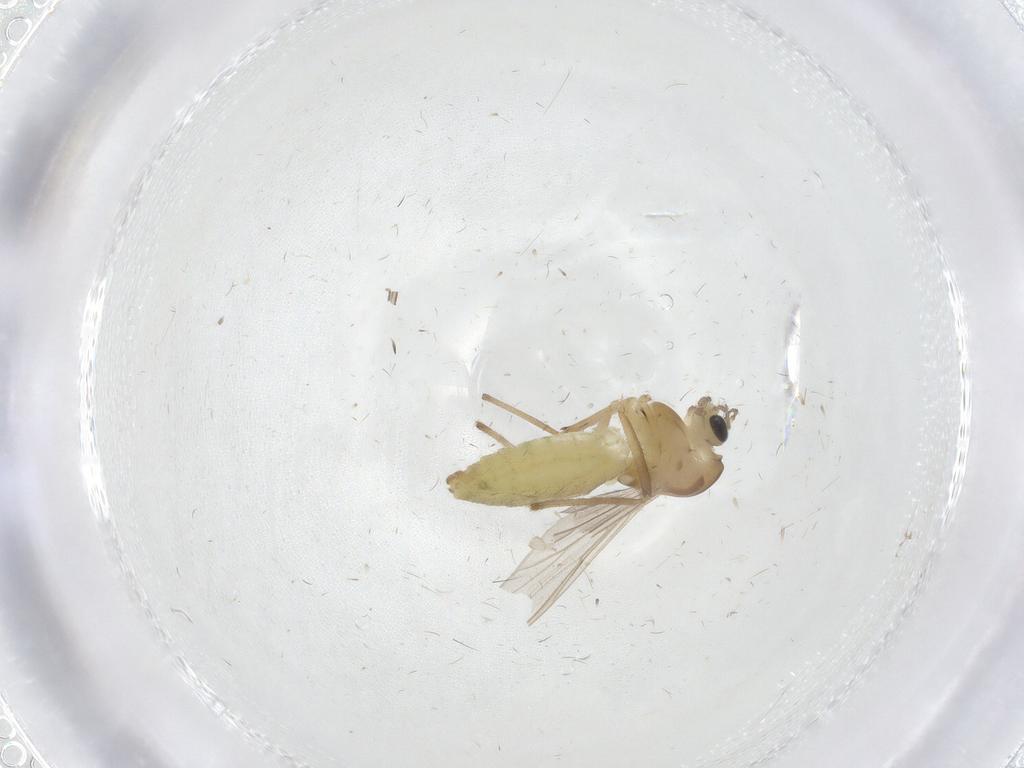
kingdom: Animalia
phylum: Arthropoda
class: Insecta
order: Diptera
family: Chironomidae
